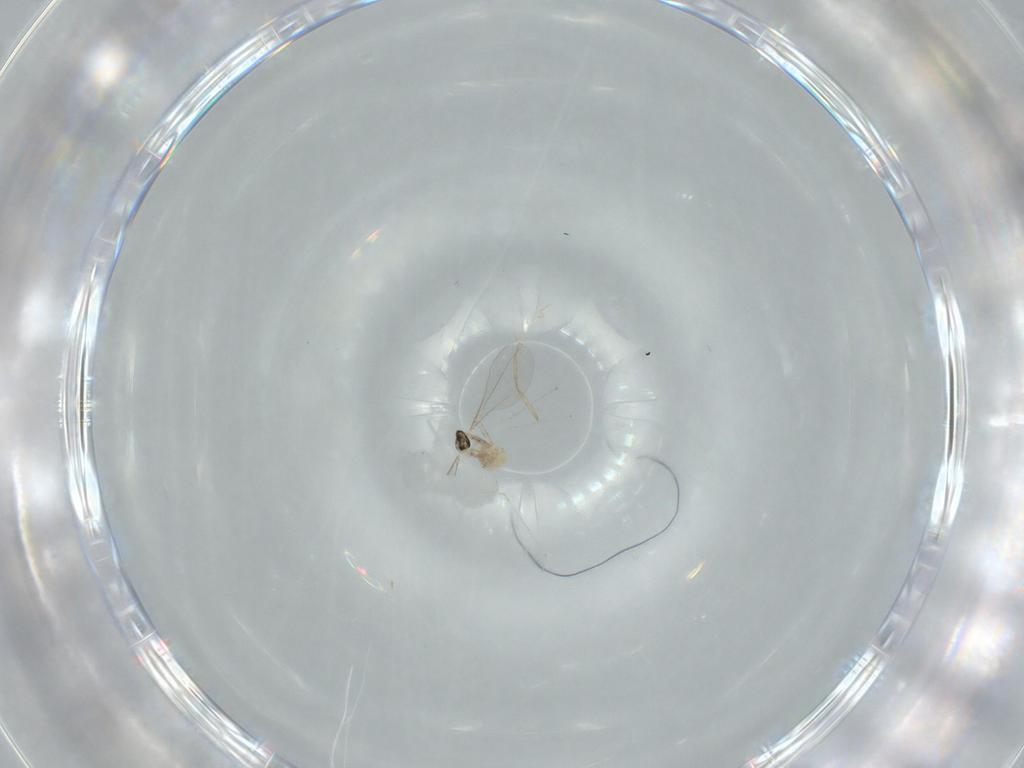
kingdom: Animalia
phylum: Arthropoda
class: Insecta
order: Diptera
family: Cecidomyiidae
